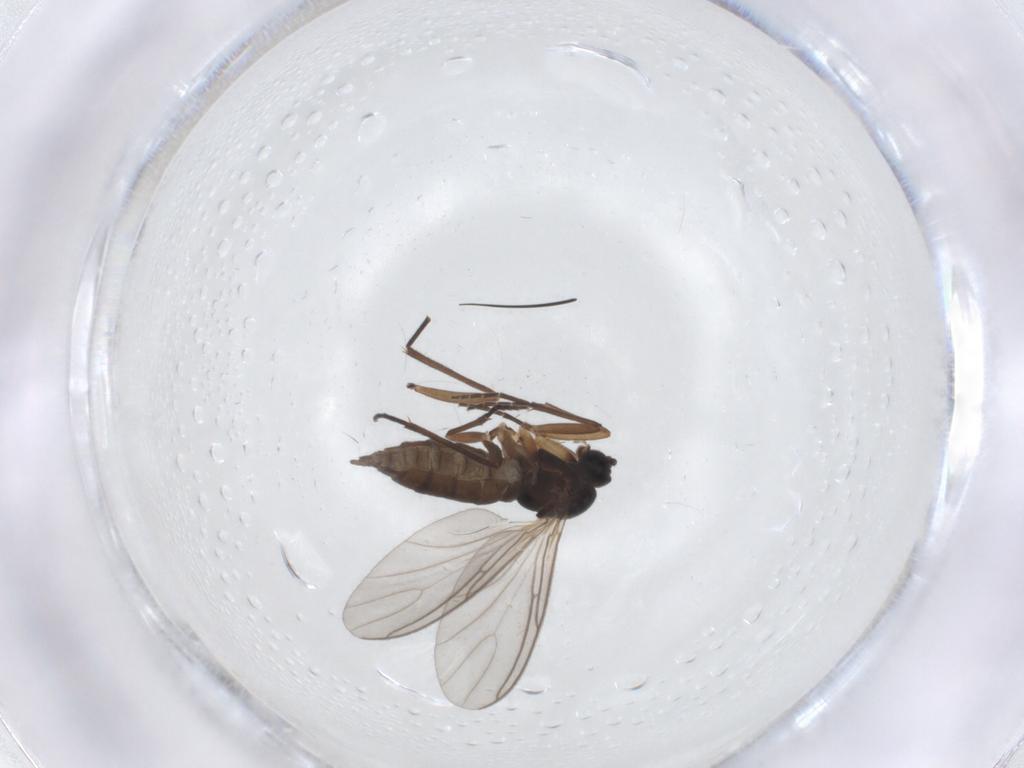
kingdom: Animalia
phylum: Arthropoda
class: Insecta
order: Diptera
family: Sciaridae
